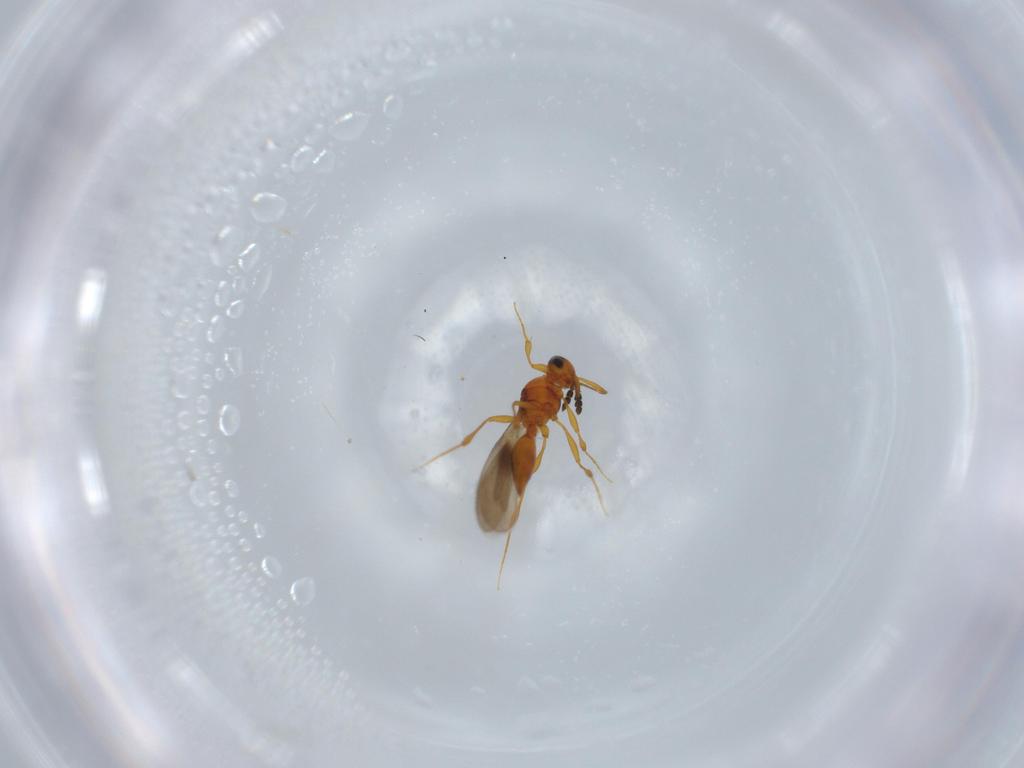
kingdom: Animalia
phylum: Arthropoda
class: Insecta
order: Hymenoptera
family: Platygastridae
